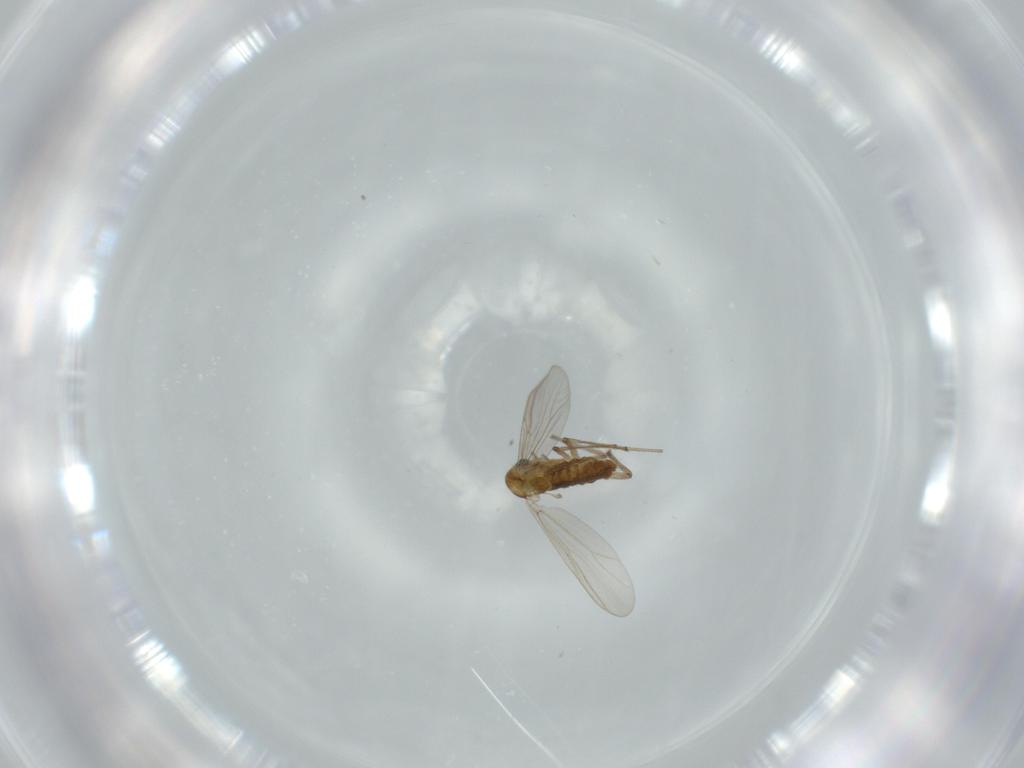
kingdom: Animalia
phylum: Arthropoda
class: Insecta
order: Diptera
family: Chironomidae
